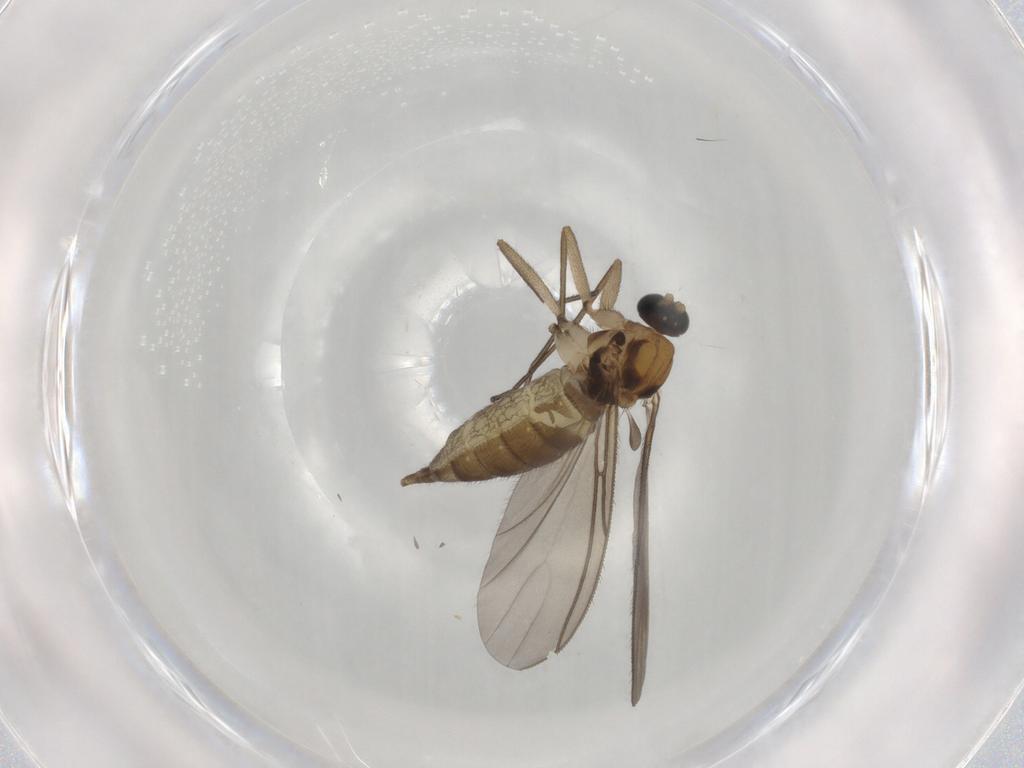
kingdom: Animalia
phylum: Arthropoda
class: Insecta
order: Diptera
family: Sciaridae
